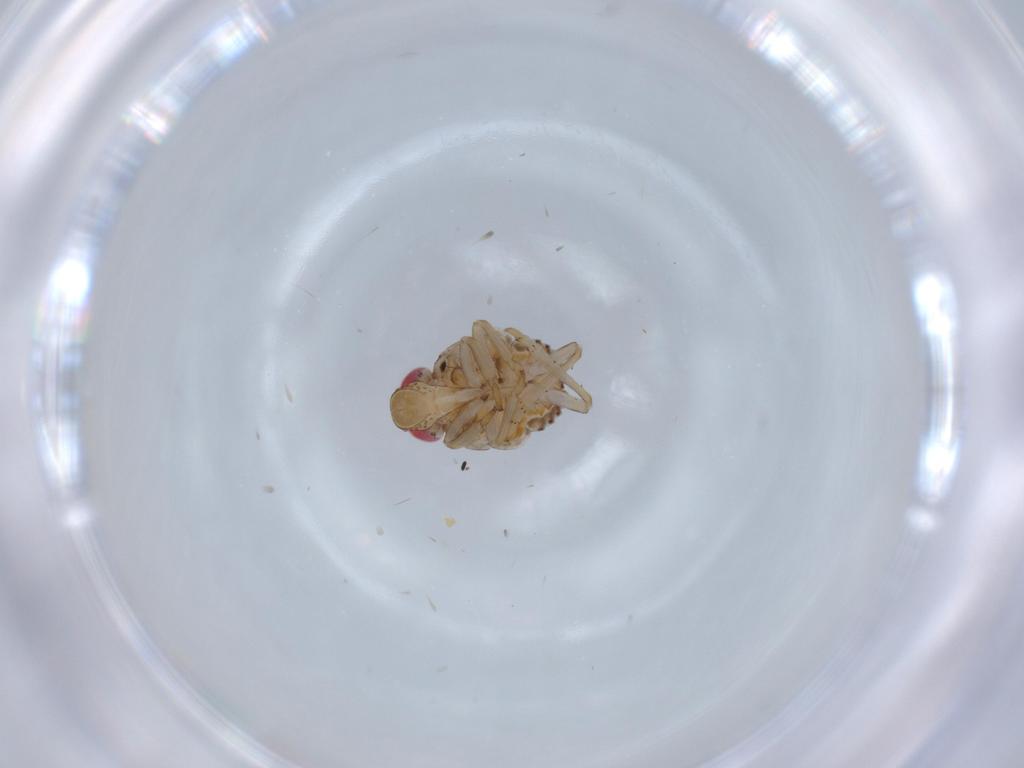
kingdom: Animalia
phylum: Arthropoda
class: Insecta
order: Hemiptera
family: Issidae
